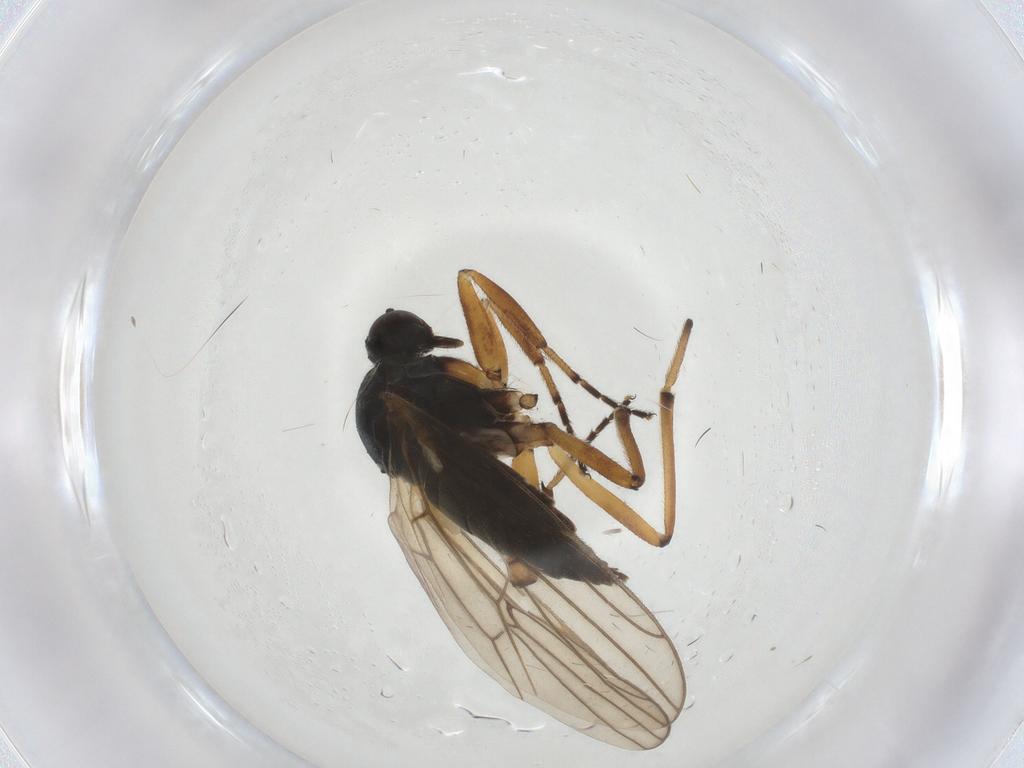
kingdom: Animalia
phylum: Arthropoda
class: Insecta
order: Diptera
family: Hybotidae
